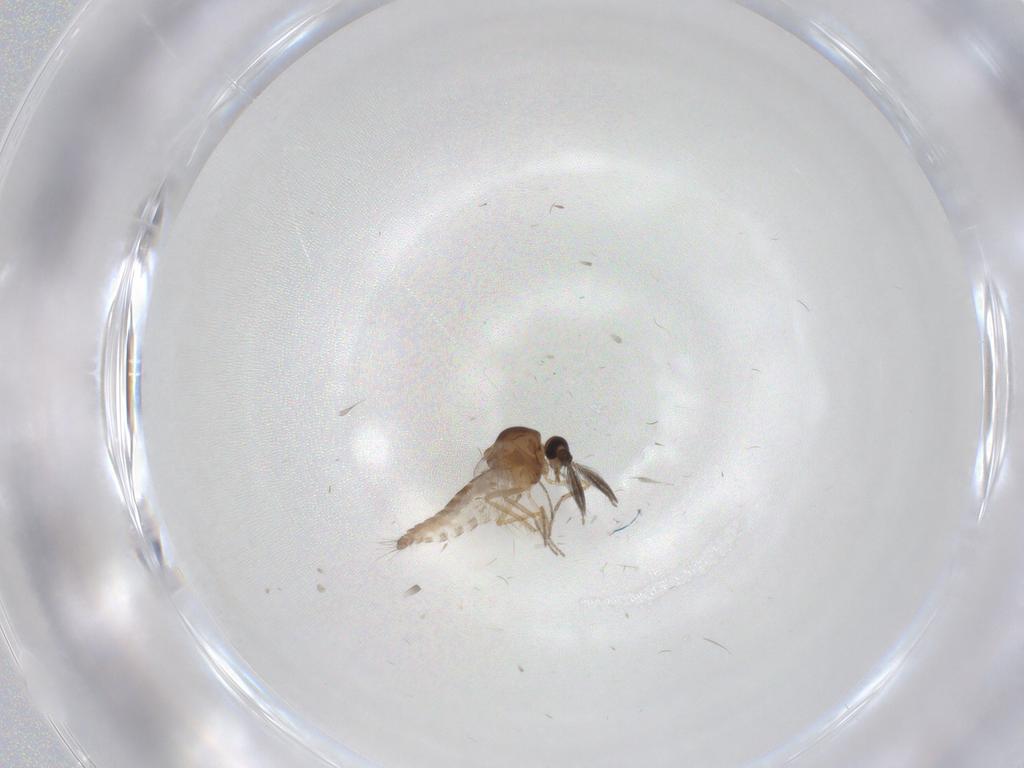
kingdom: Animalia
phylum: Arthropoda
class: Insecta
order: Diptera
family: Ceratopogonidae
